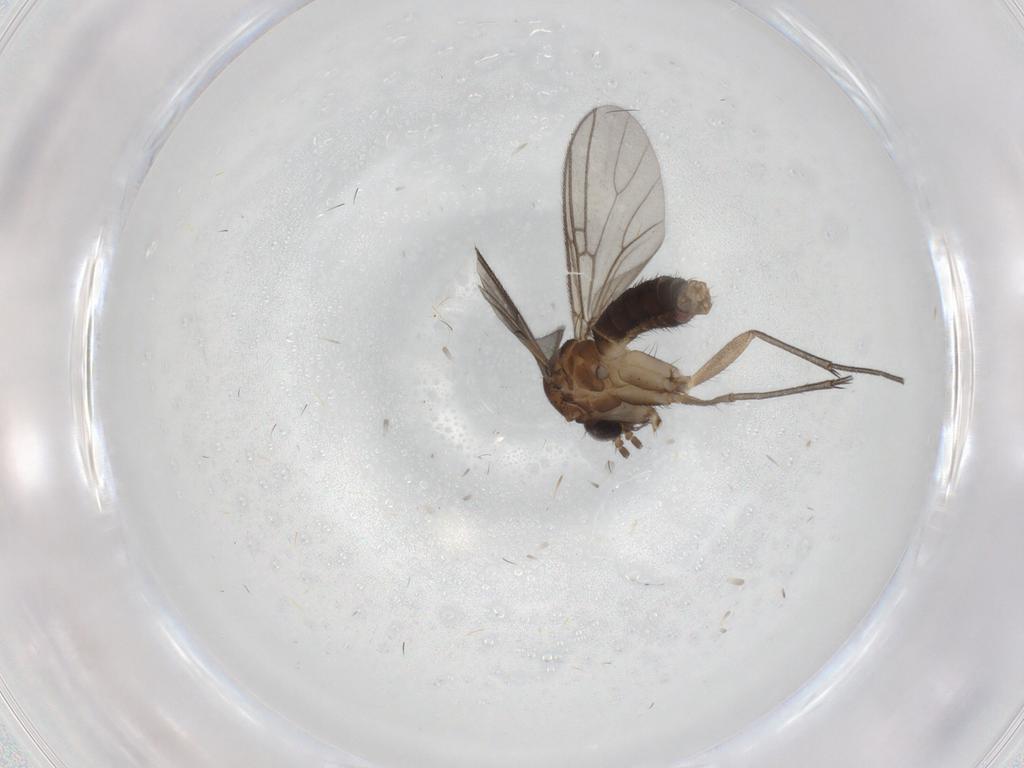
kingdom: Animalia
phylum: Arthropoda
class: Insecta
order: Diptera
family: Mycetophilidae
